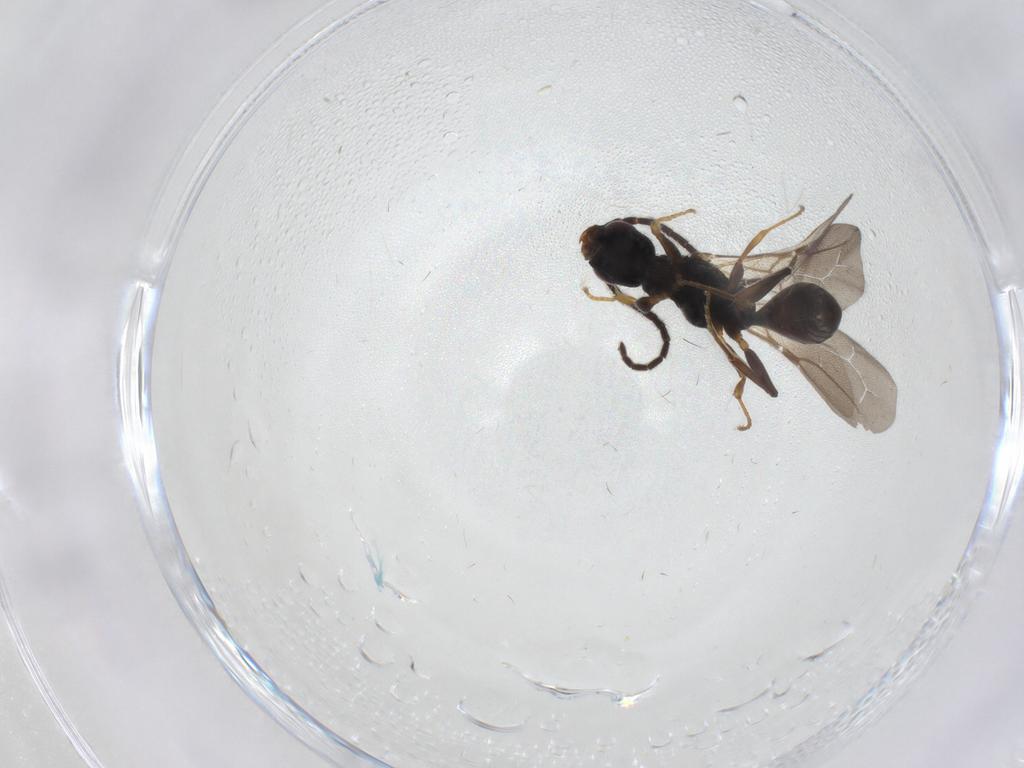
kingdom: Animalia
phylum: Arthropoda
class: Insecta
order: Hymenoptera
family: Bethylidae
